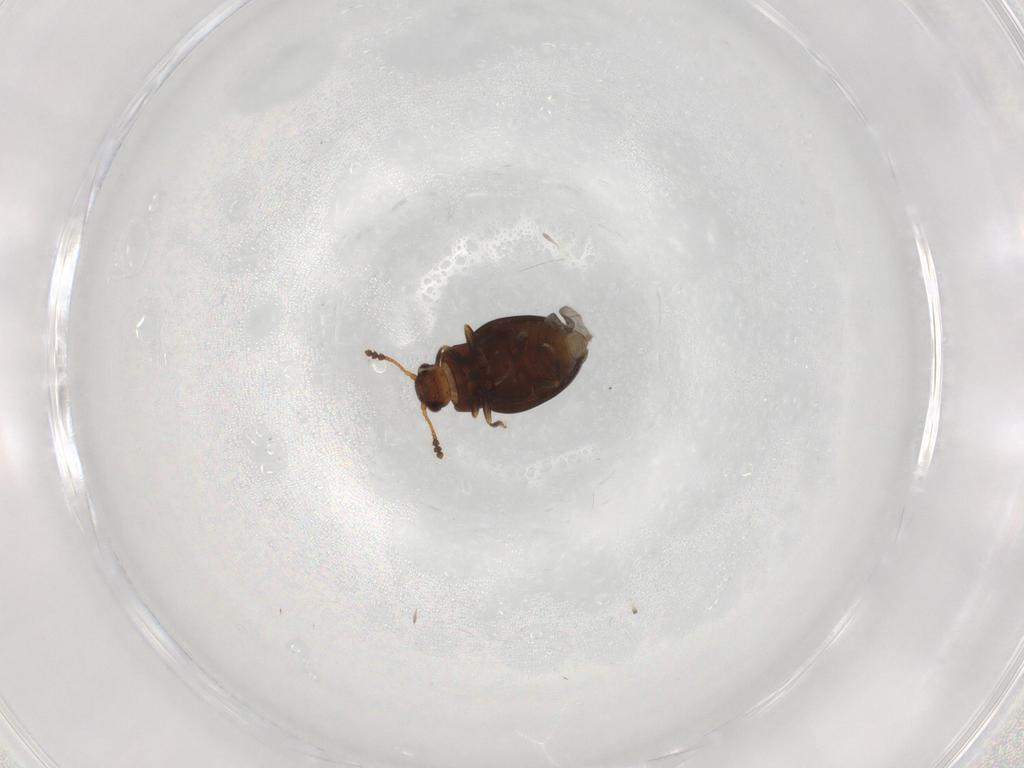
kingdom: Animalia
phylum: Arthropoda
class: Insecta
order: Coleoptera
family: Erotylidae
